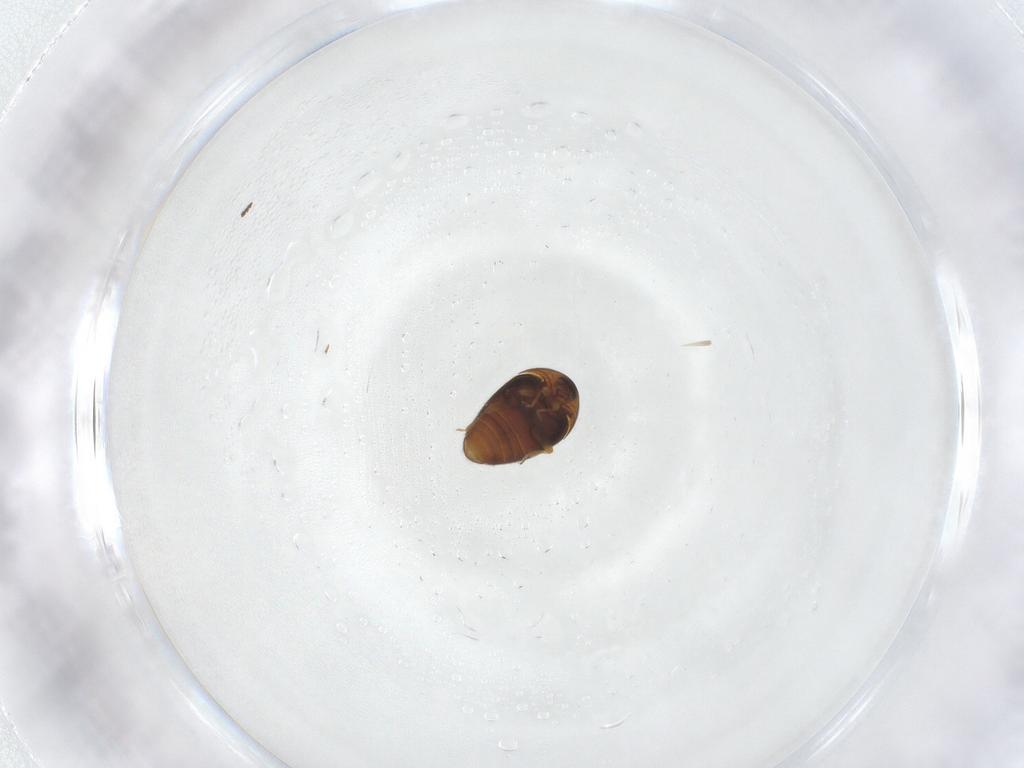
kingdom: Animalia
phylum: Arthropoda
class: Insecta
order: Coleoptera
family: Corylophidae
